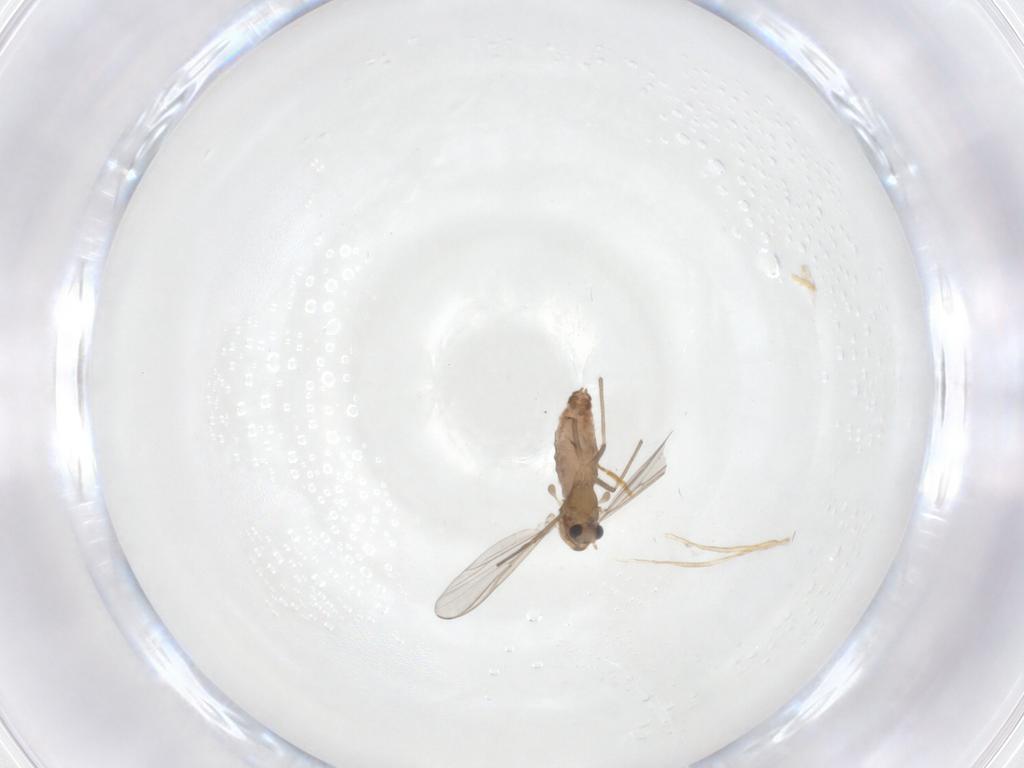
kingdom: Animalia
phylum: Arthropoda
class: Insecta
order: Diptera
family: Chironomidae
